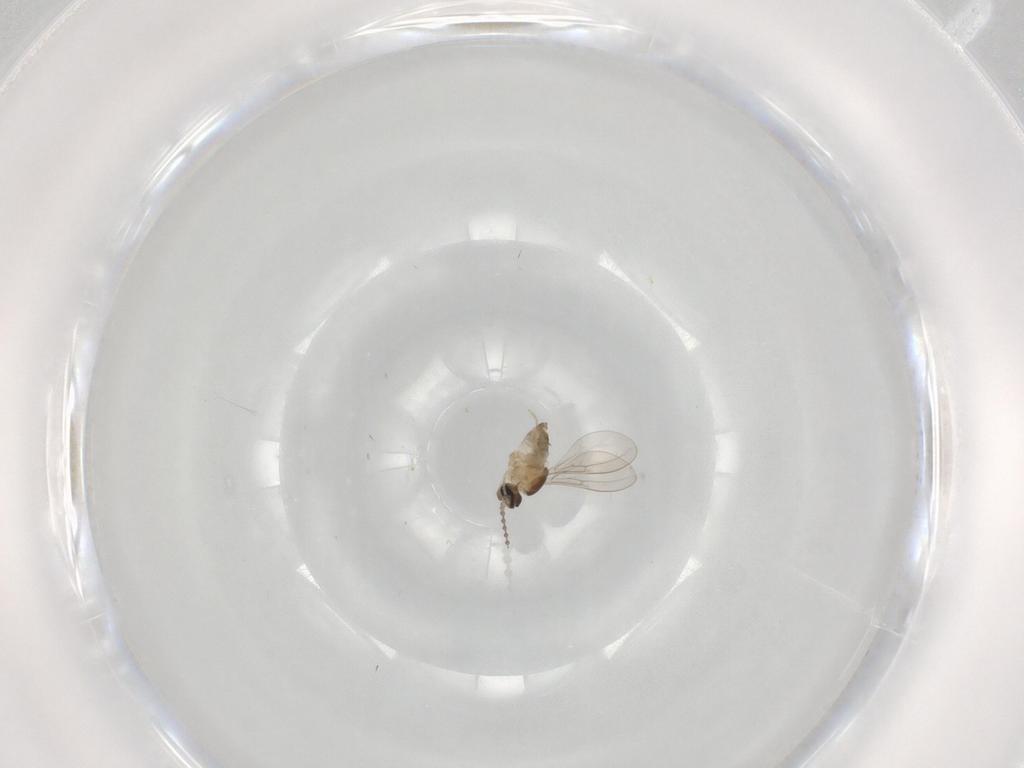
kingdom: Animalia
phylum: Arthropoda
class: Insecta
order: Diptera
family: Cecidomyiidae
